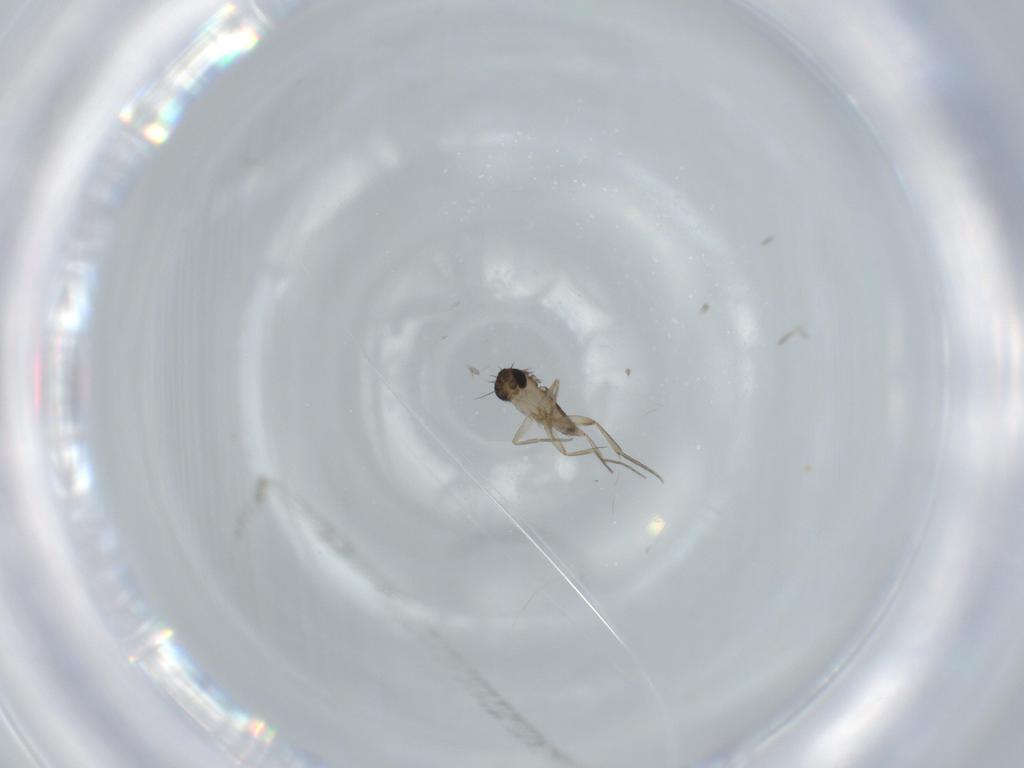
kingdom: Animalia
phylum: Arthropoda
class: Insecta
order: Diptera
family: Phoridae
